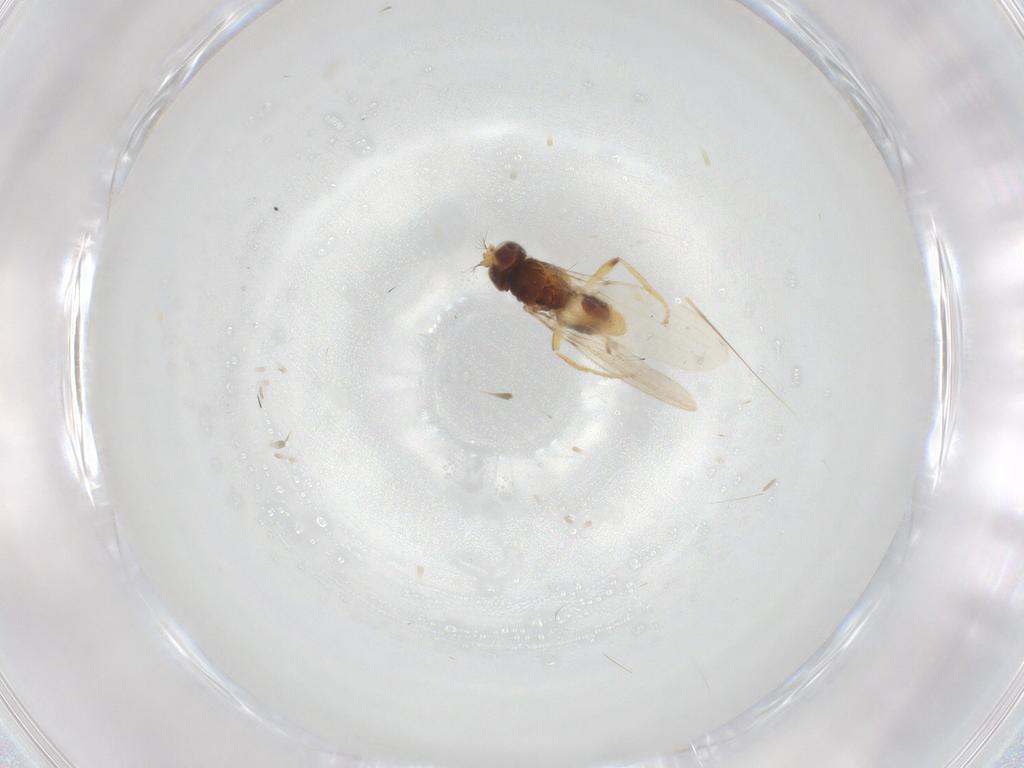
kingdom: Animalia
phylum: Arthropoda
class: Insecta
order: Diptera
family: Periscelididae
